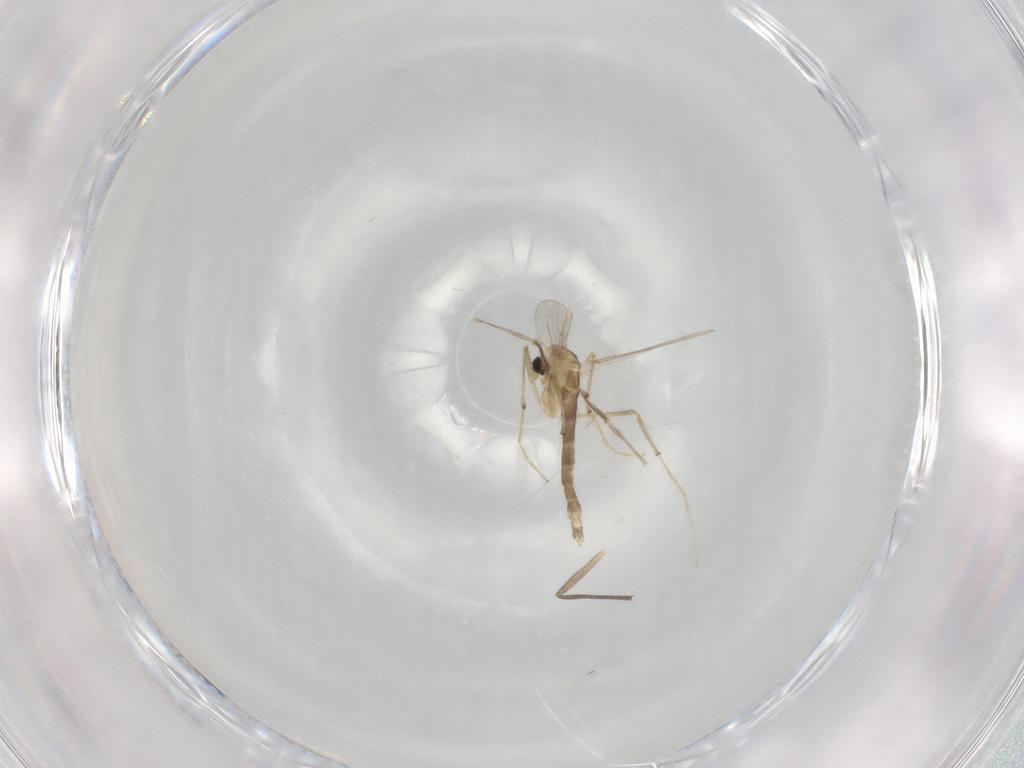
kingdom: Animalia
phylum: Arthropoda
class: Insecta
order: Diptera
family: Chironomidae
